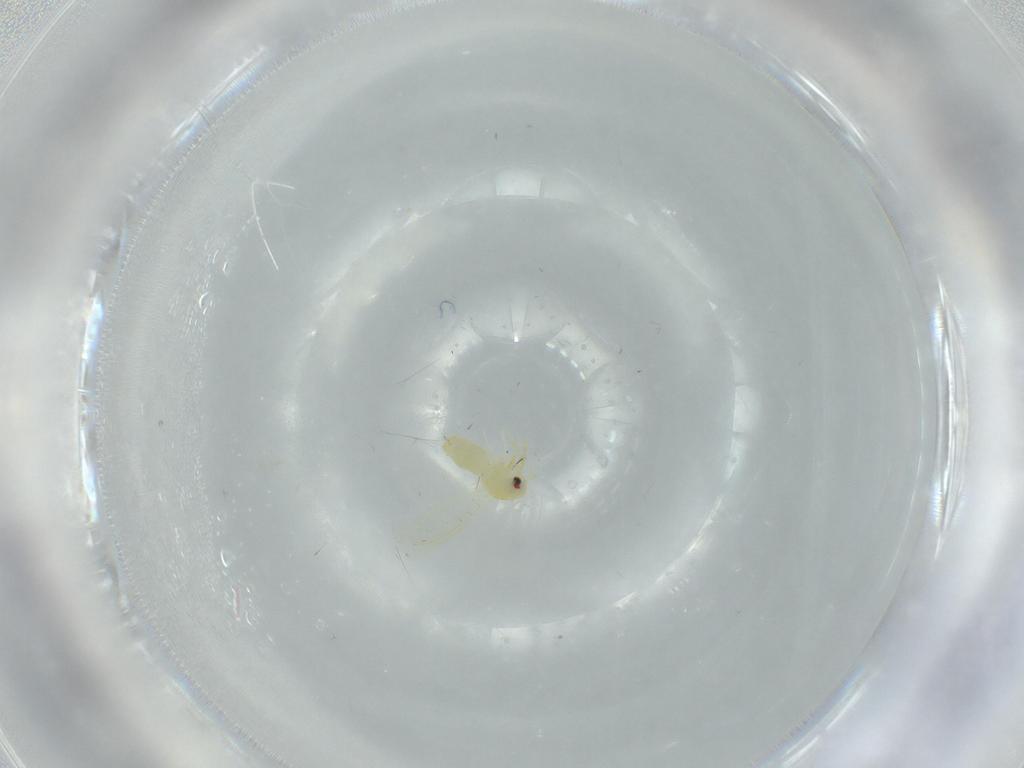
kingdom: Animalia
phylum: Arthropoda
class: Insecta
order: Hemiptera
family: Aleyrodidae
